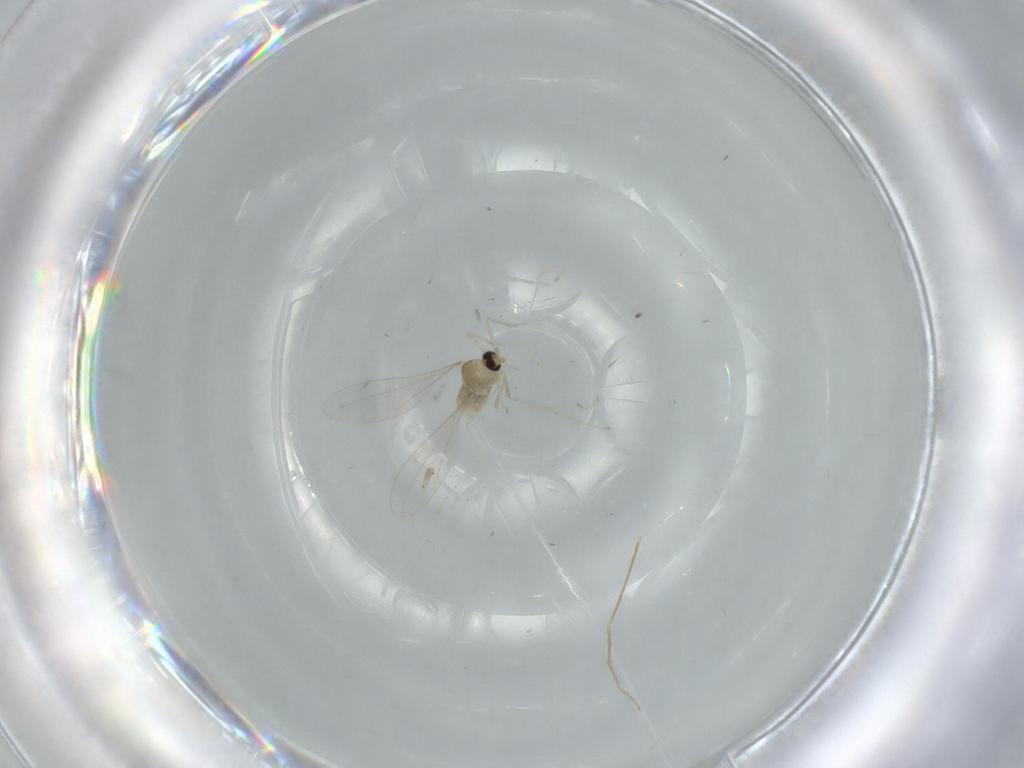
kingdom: Animalia
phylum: Arthropoda
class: Insecta
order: Diptera
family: Cecidomyiidae
